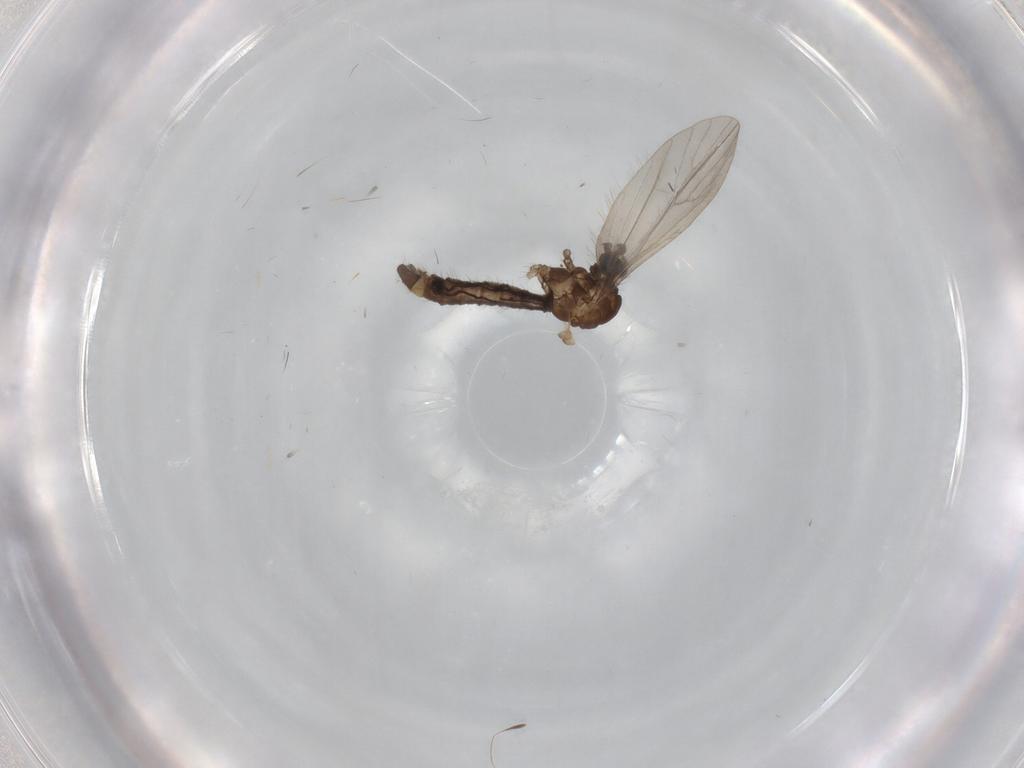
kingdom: Animalia
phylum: Arthropoda
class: Insecta
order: Diptera
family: Limoniidae
